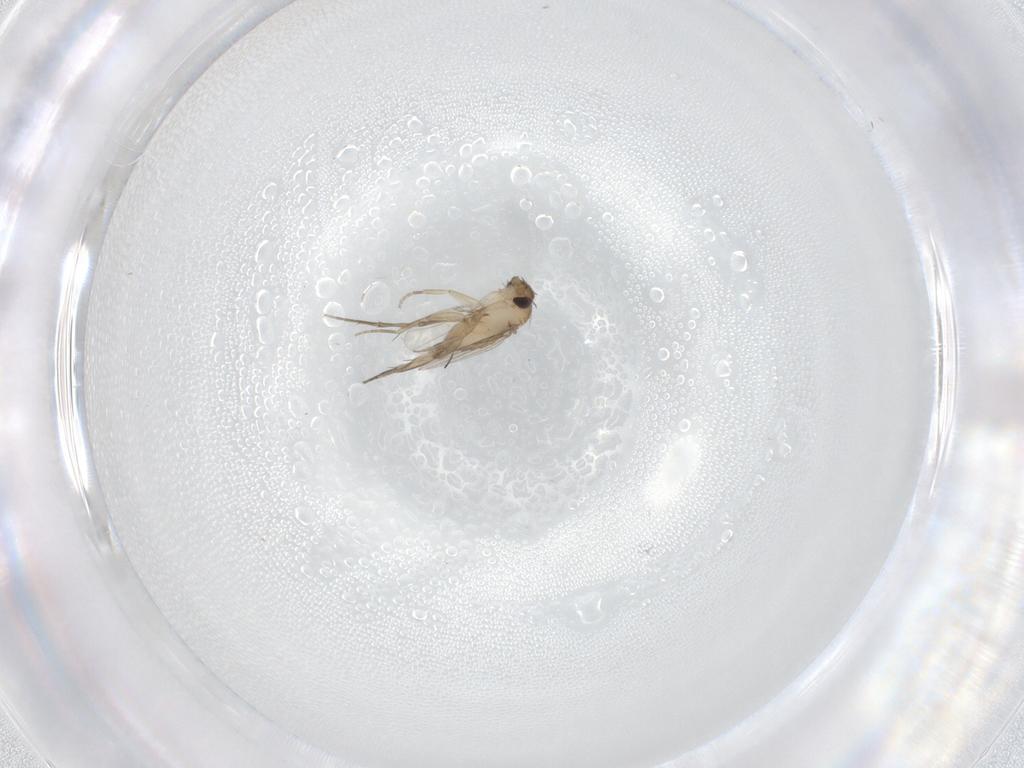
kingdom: Animalia
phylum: Arthropoda
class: Insecta
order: Diptera
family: Phoridae
